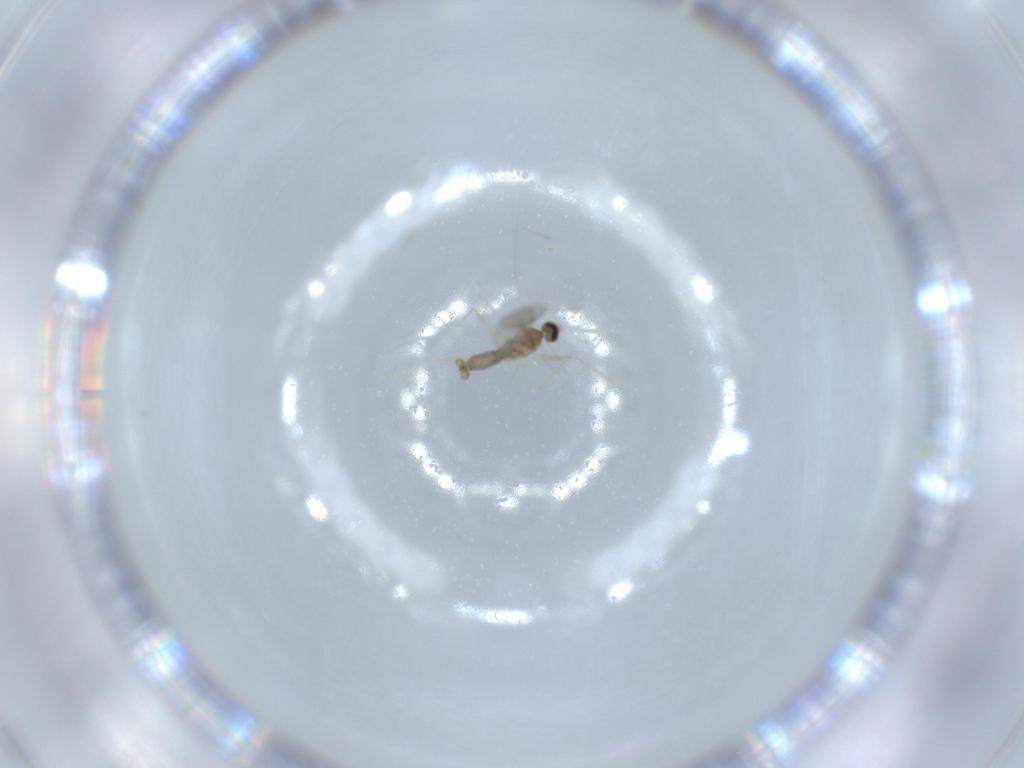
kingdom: Animalia
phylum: Arthropoda
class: Insecta
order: Diptera
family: Cecidomyiidae
